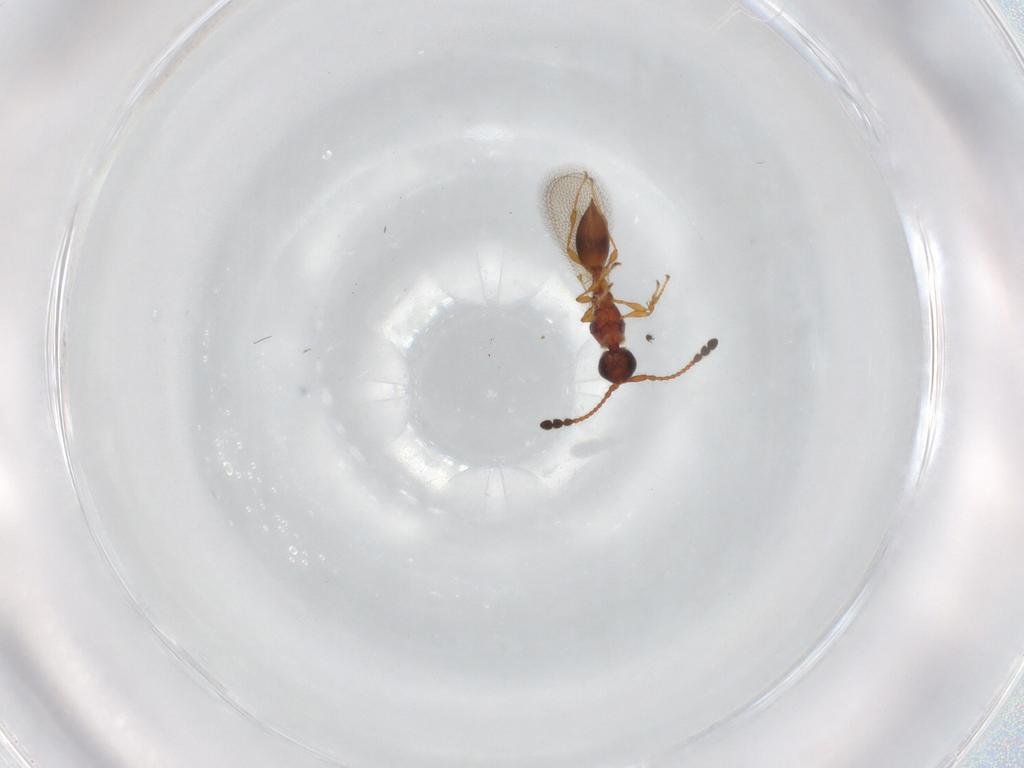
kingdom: Animalia
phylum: Arthropoda
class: Insecta
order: Hymenoptera
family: Diapriidae
